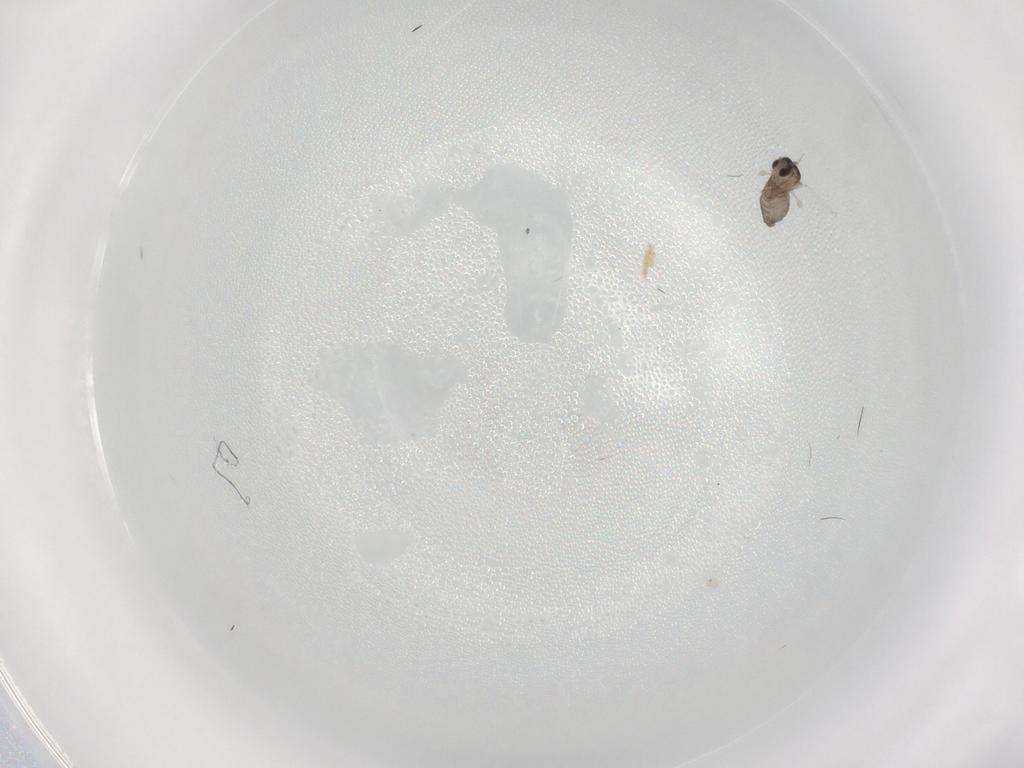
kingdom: Animalia
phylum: Arthropoda
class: Insecta
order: Diptera
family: Cecidomyiidae
